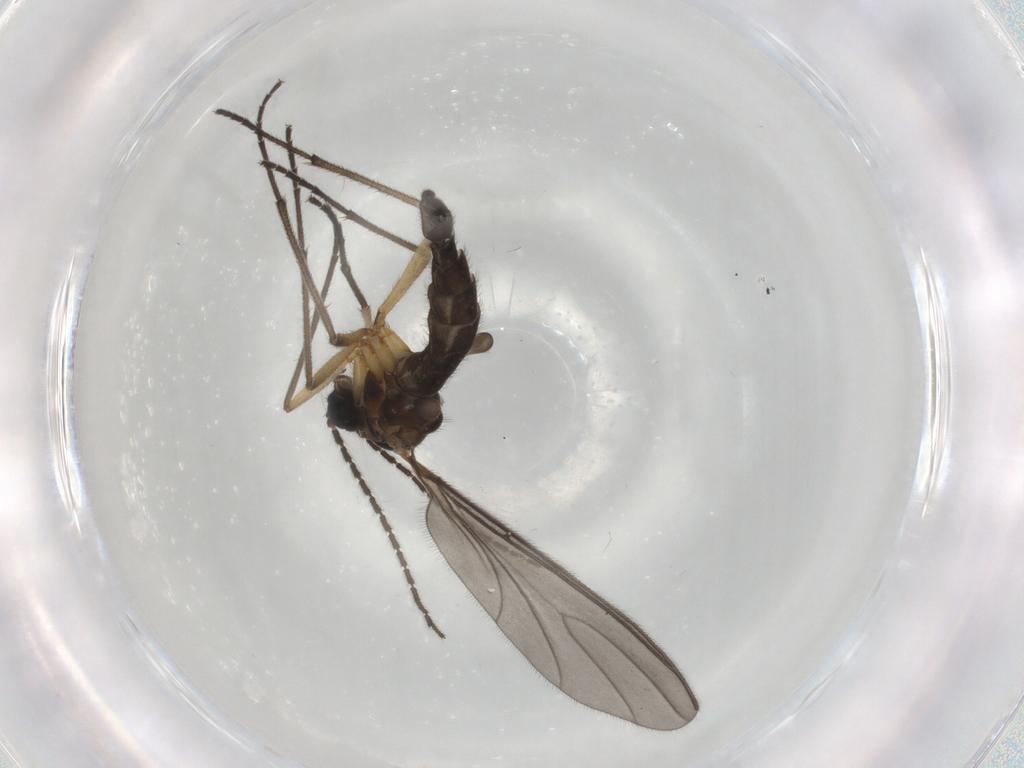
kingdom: Animalia
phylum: Arthropoda
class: Insecta
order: Diptera
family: Sciaridae
